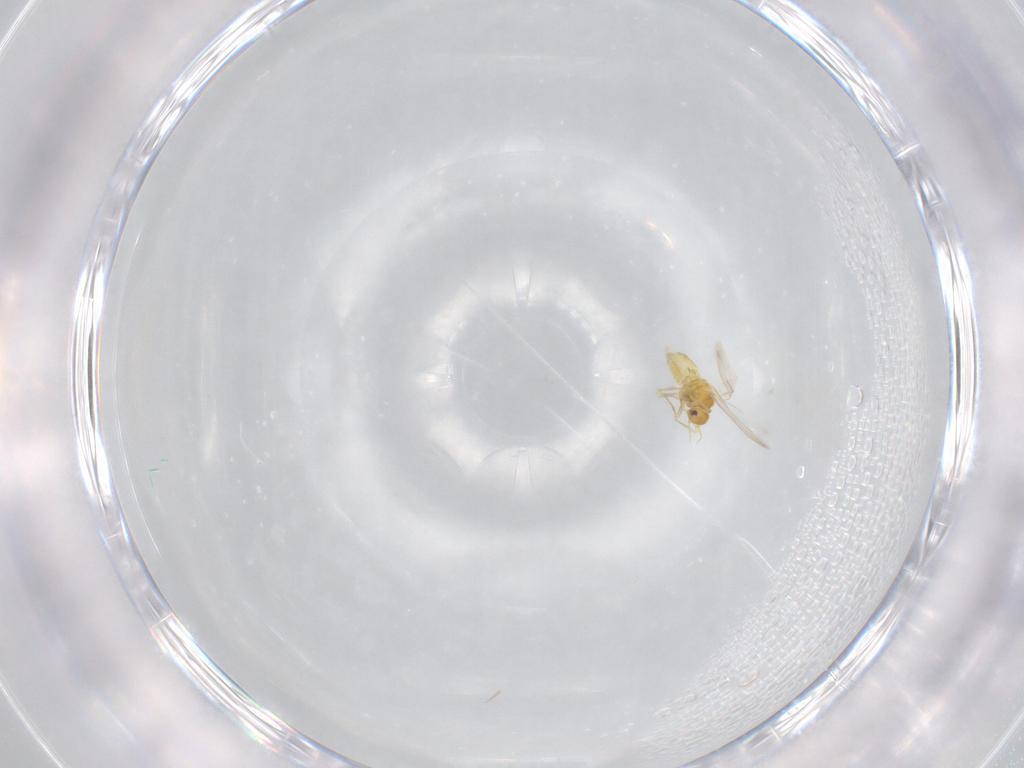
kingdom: Animalia
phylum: Arthropoda
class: Insecta
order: Hemiptera
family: Aleyrodidae
